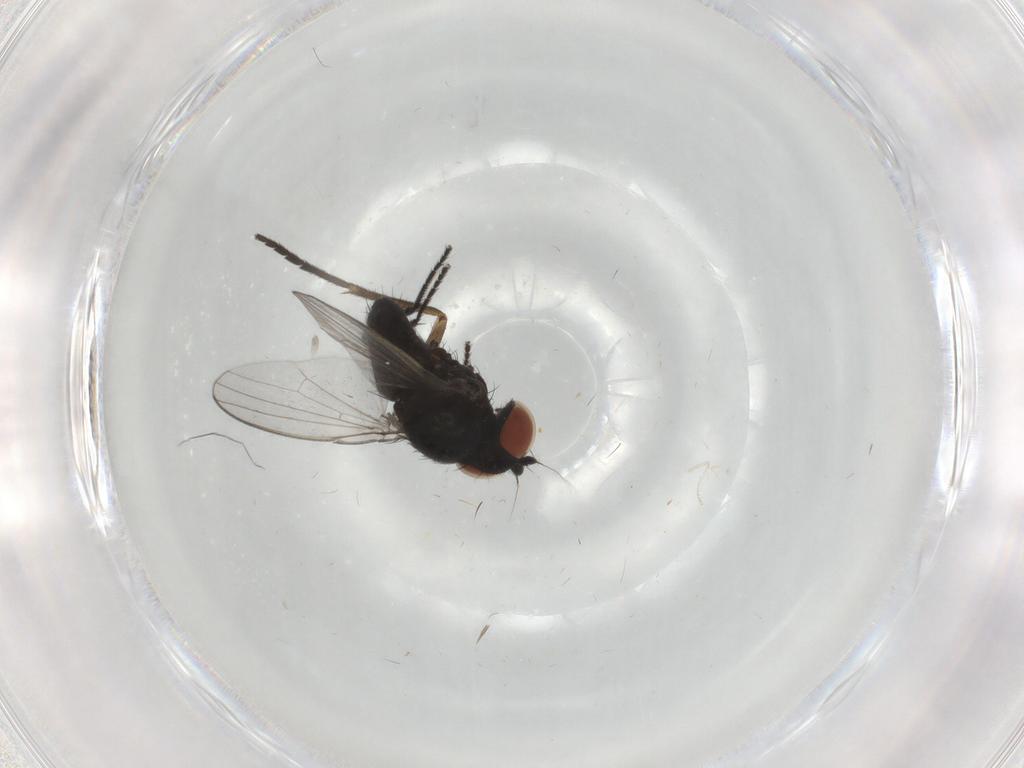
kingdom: Animalia
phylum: Arthropoda
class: Insecta
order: Diptera
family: Milichiidae
